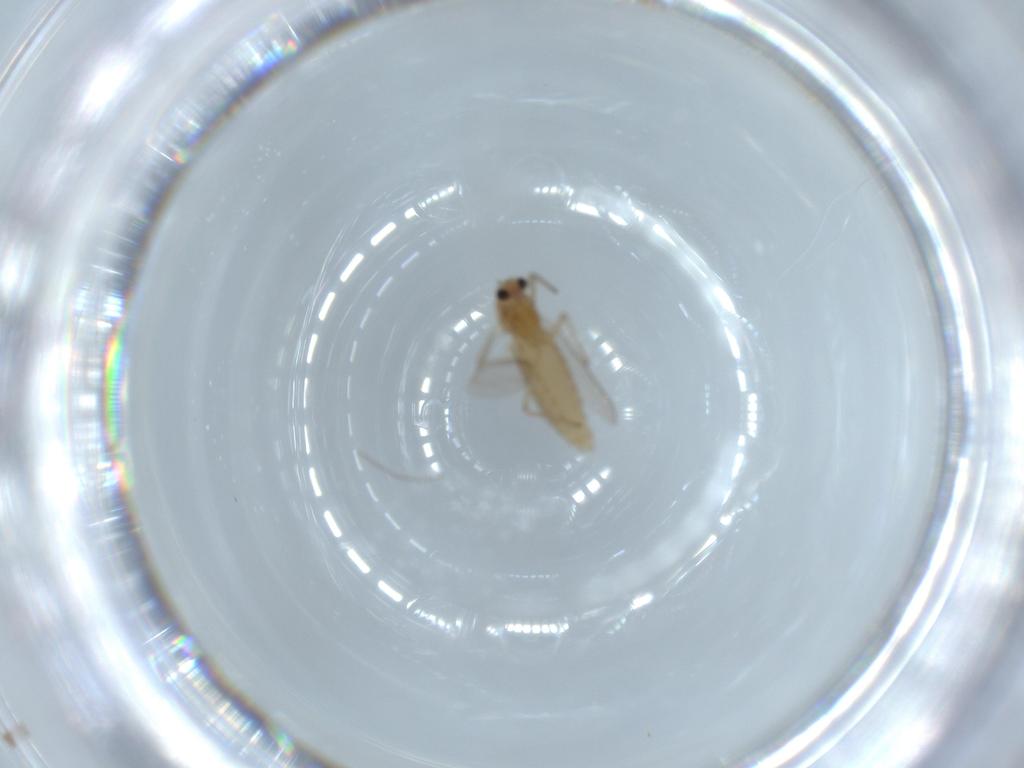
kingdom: Animalia
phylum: Arthropoda
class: Insecta
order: Diptera
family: Chironomidae
